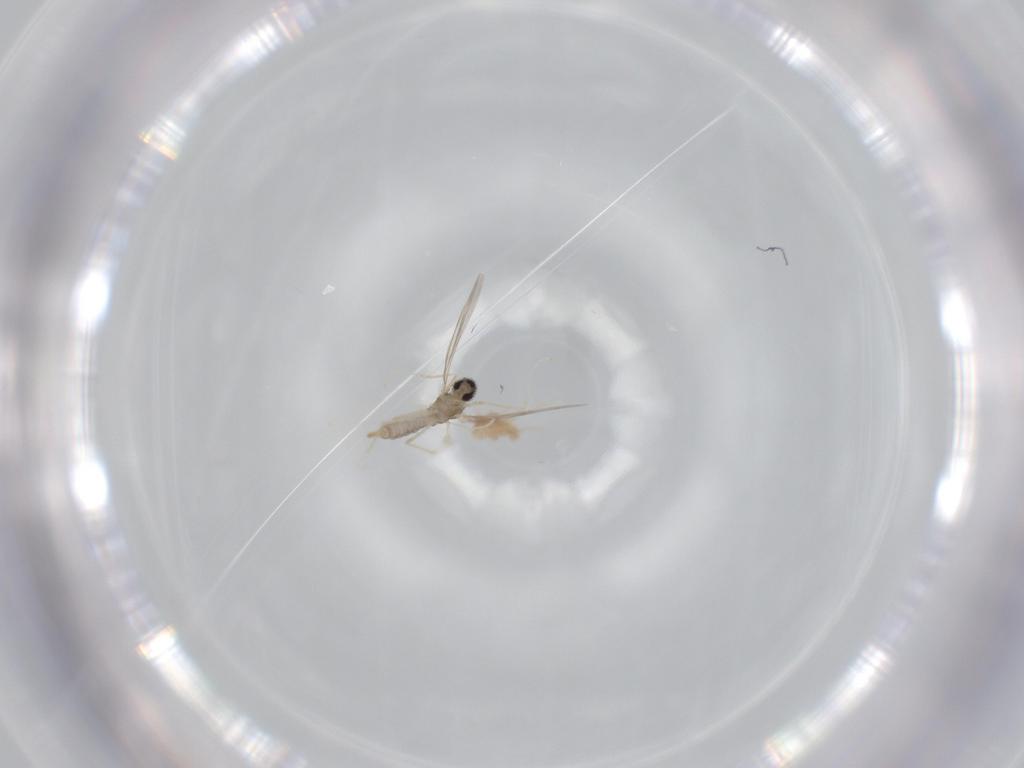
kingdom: Animalia
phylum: Arthropoda
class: Insecta
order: Diptera
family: Cecidomyiidae
